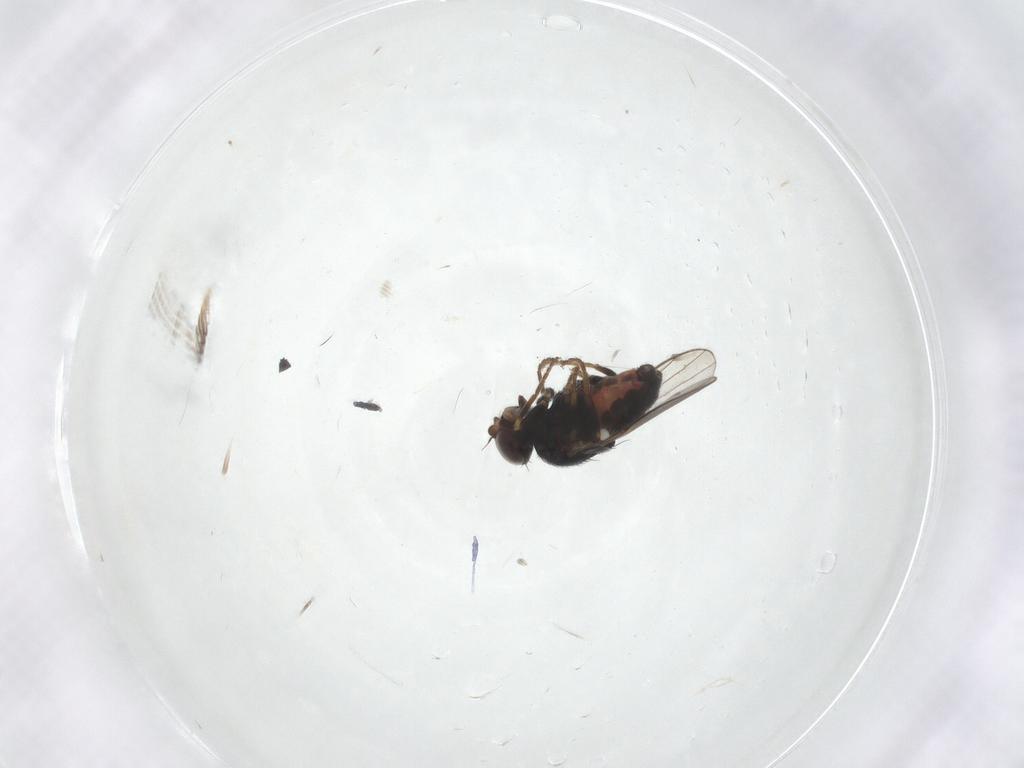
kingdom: Animalia
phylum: Arthropoda
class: Insecta
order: Diptera
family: Chloropidae
